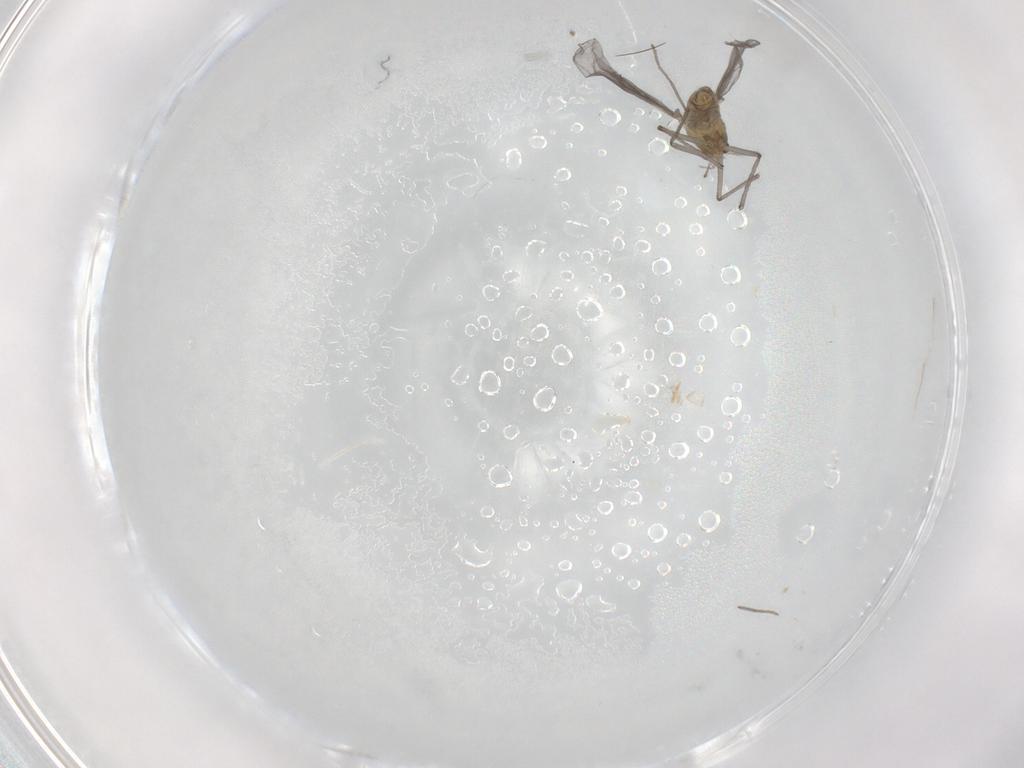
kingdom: Animalia
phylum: Arthropoda
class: Insecta
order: Diptera
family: Chironomidae
